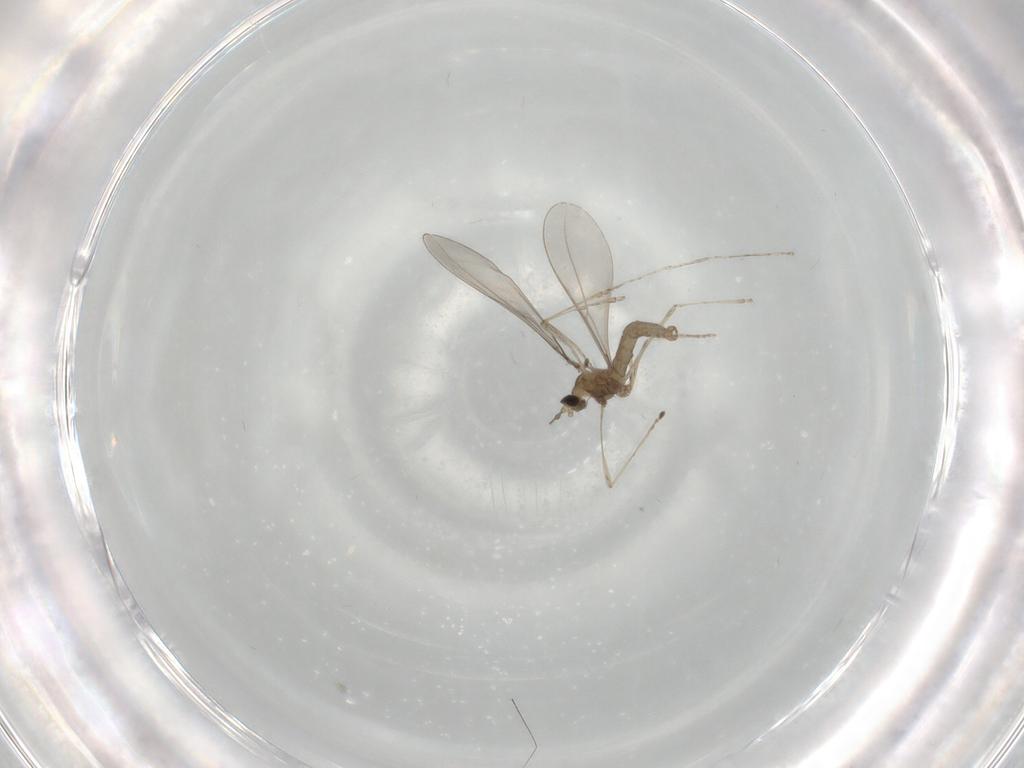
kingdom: Animalia
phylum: Arthropoda
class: Insecta
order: Diptera
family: Cecidomyiidae
